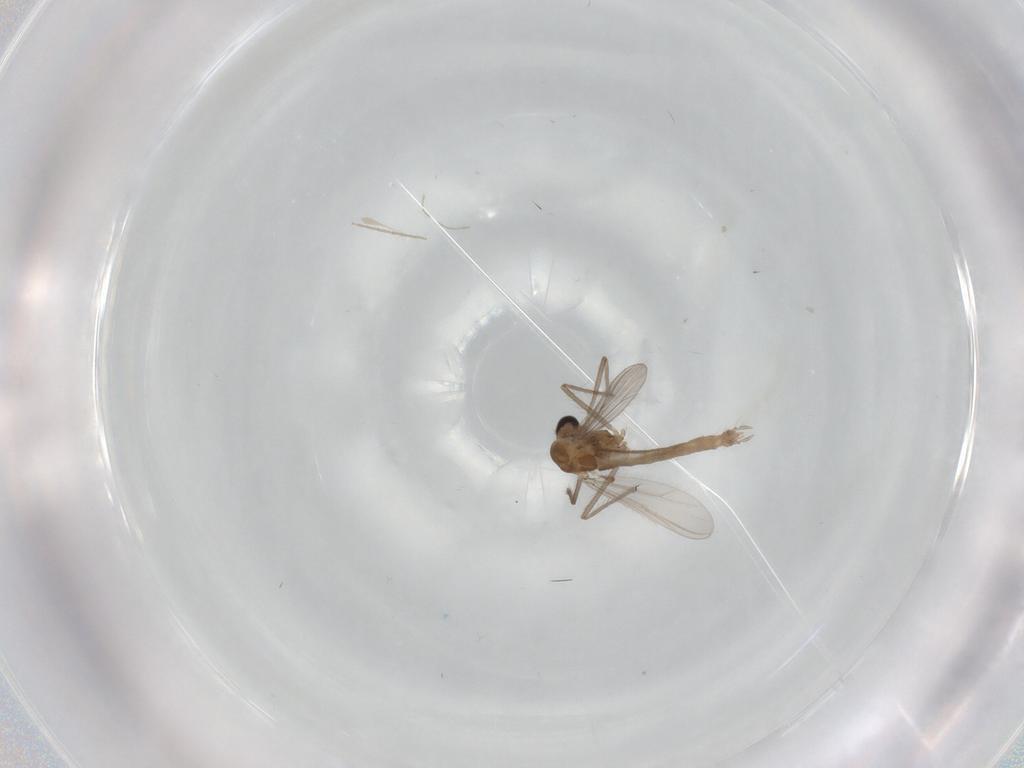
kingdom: Animalia
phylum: Arthropoda
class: Insecta
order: Diptera
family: Chironomidae
